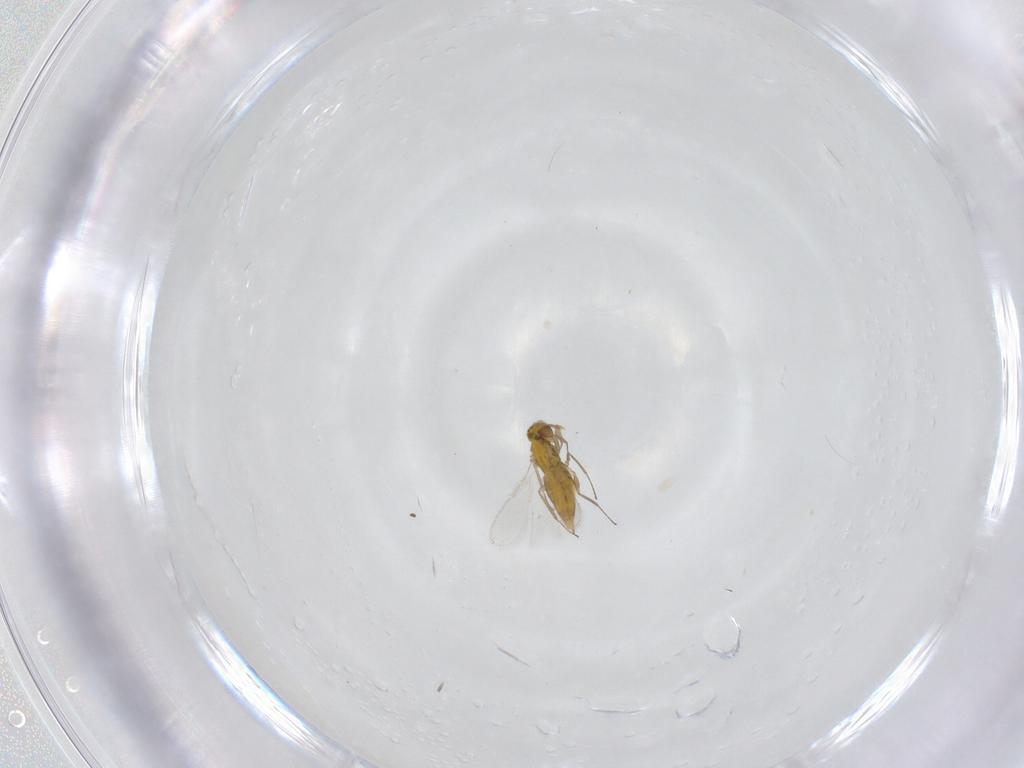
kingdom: Animalia
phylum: Arthropoda
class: Insecta
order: Hymenoptera
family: Aphelinidae
